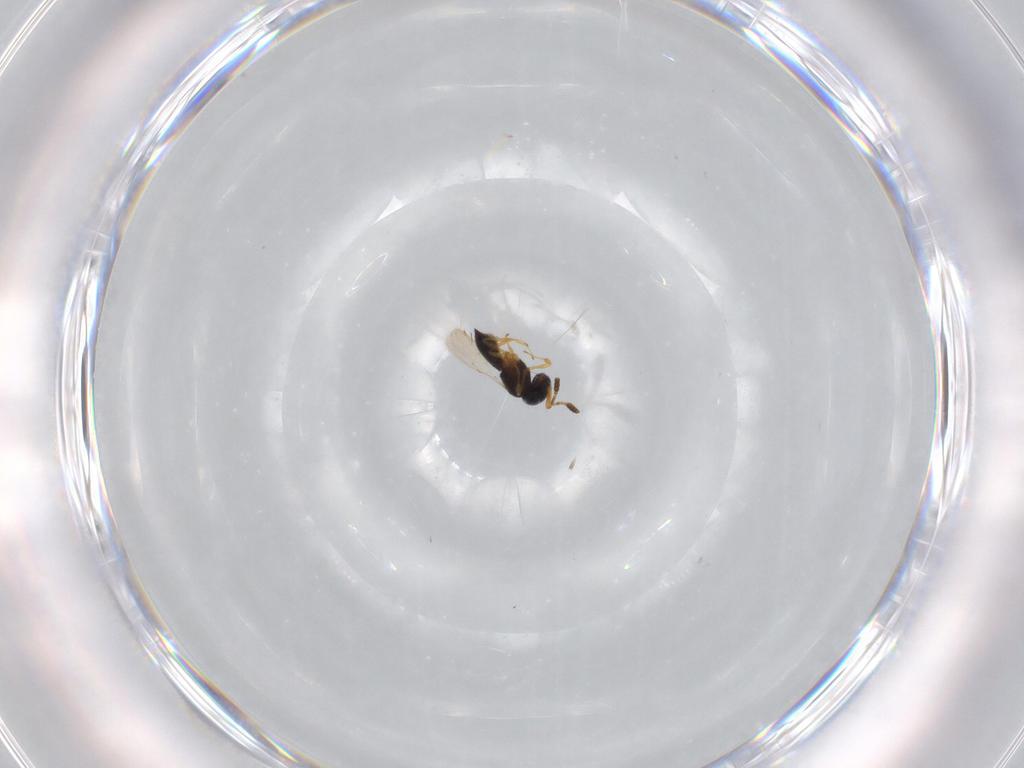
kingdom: Animalia
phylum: Arthropoda
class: Insecta
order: Hymenoptera
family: Scelionidae
